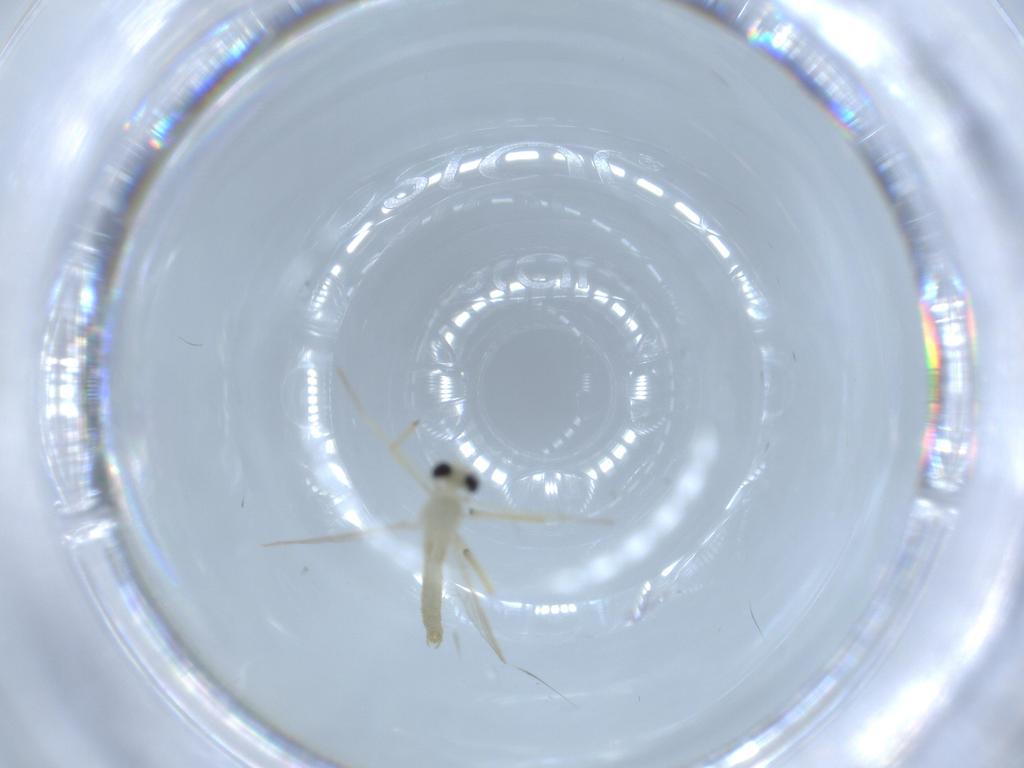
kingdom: Animalia
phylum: Arthropoda
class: Insecta
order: Diptera
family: Chironomidae
